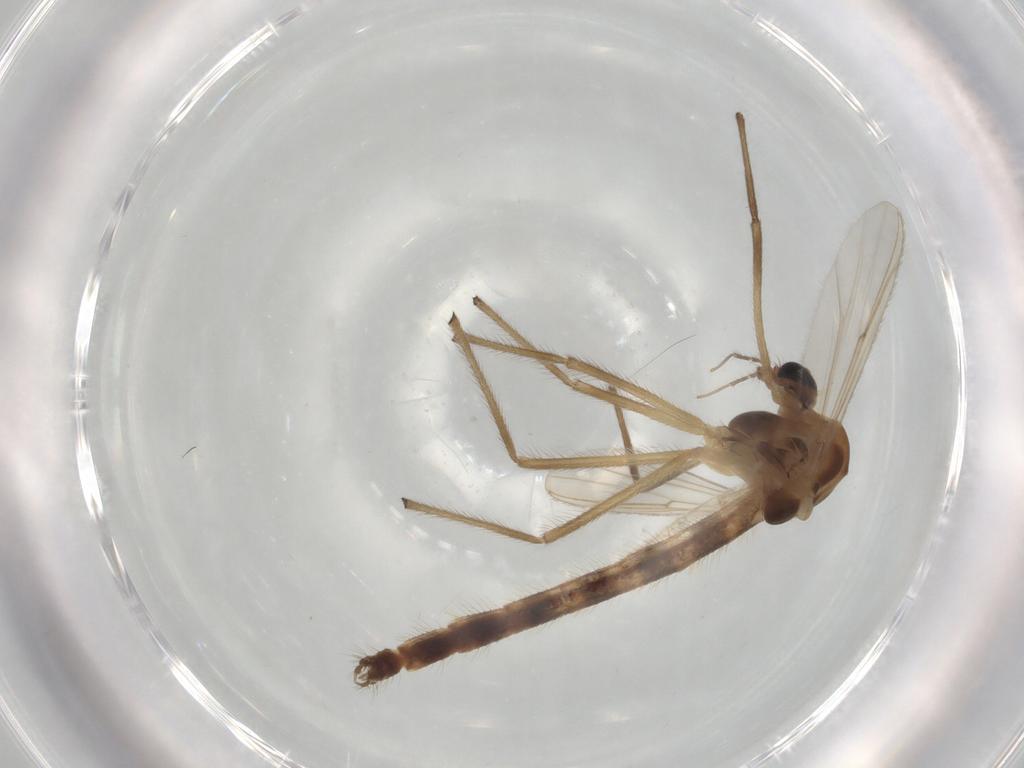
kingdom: Animalia
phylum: Arthropoda
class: Insecta
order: Diptera
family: Chironomidae
